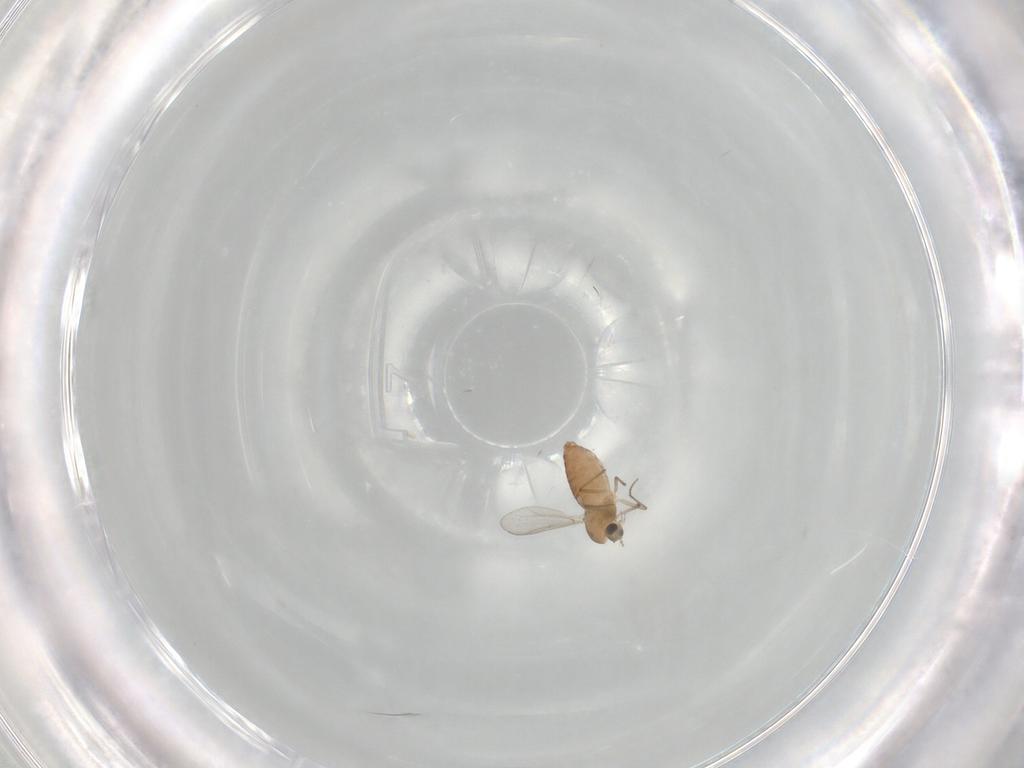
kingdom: Animalia
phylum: Arthropoda
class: Insecta
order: Diptera
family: Chironomidae
